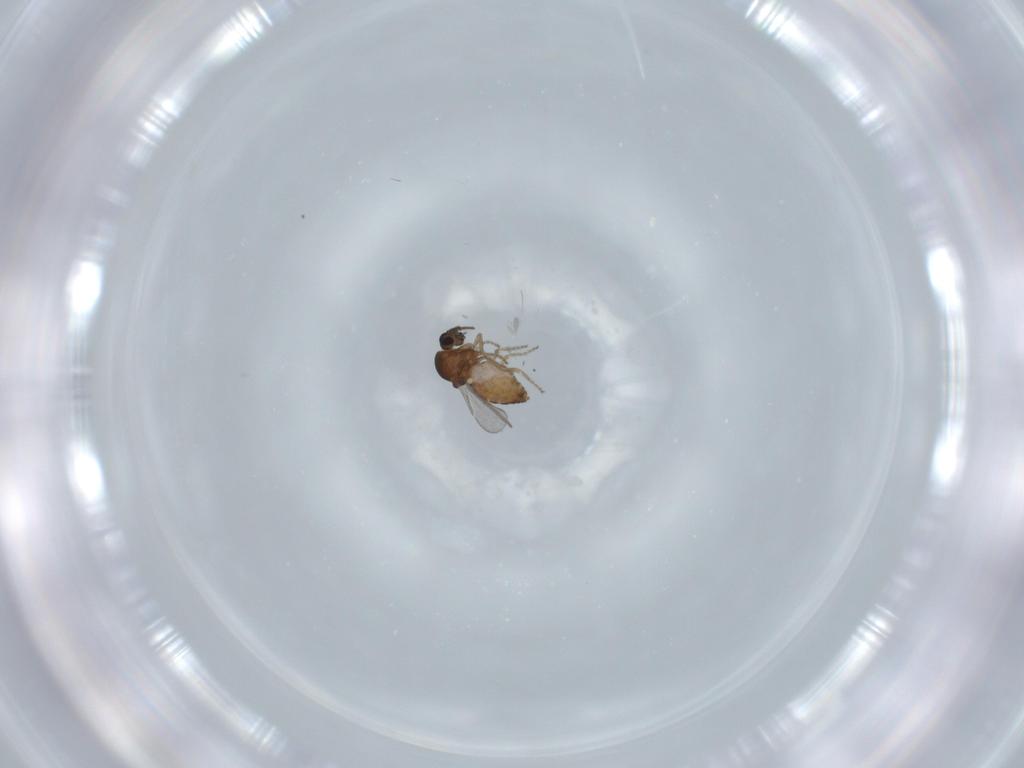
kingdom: Animalia
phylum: Arthropoda
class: Insecta
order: Diptera
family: Ceratopogonidae
